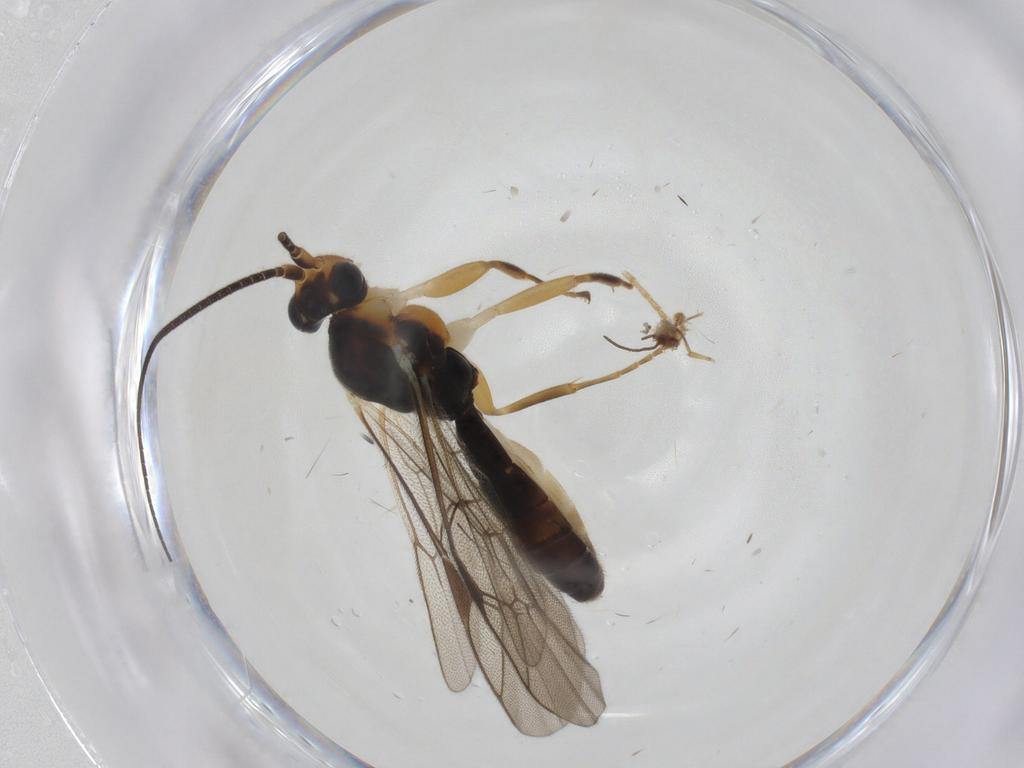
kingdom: Animalia
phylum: Arthropoda
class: Insecta
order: Hymenoptera
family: Ichneumonidae
